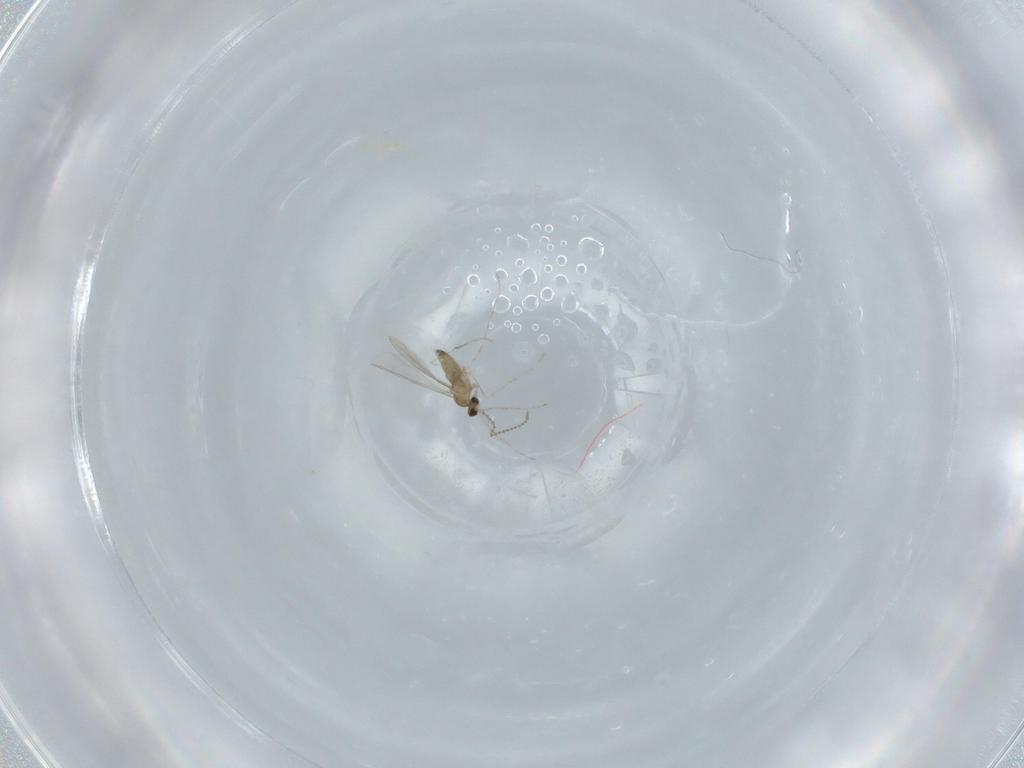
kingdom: Animalia
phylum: Arthropoda
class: Insecta
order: Diptera
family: Cecidomyiidae
